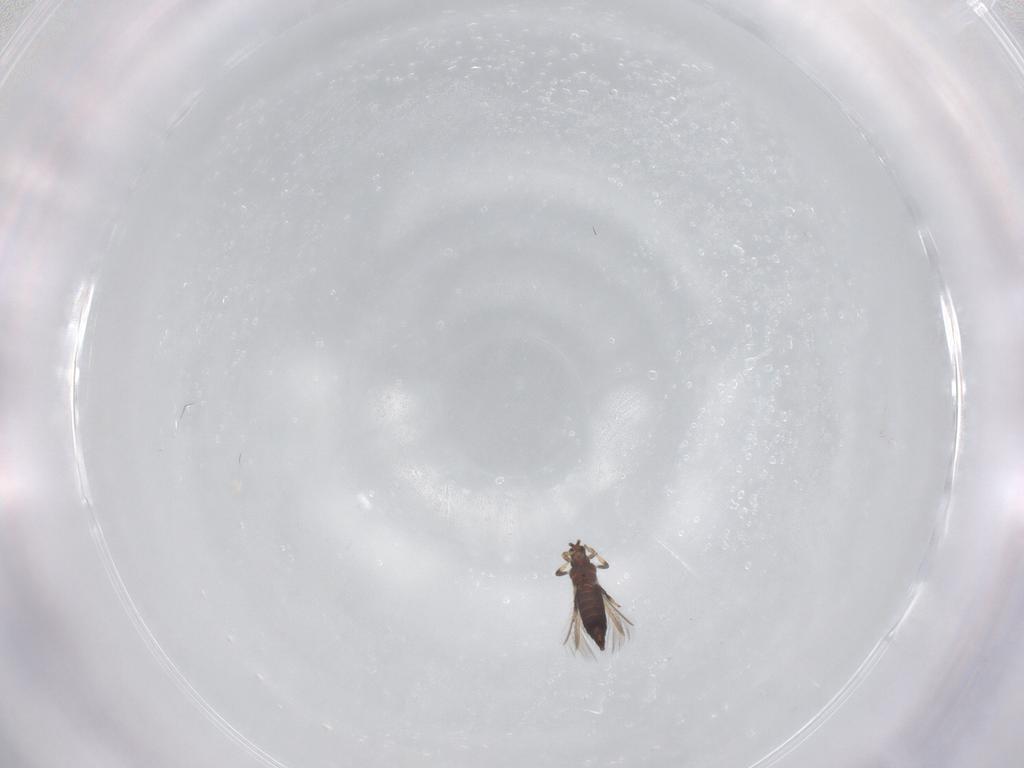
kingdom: Animalia
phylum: Arthropoda
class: Insecta
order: Thysanoptera
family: Thripidae
